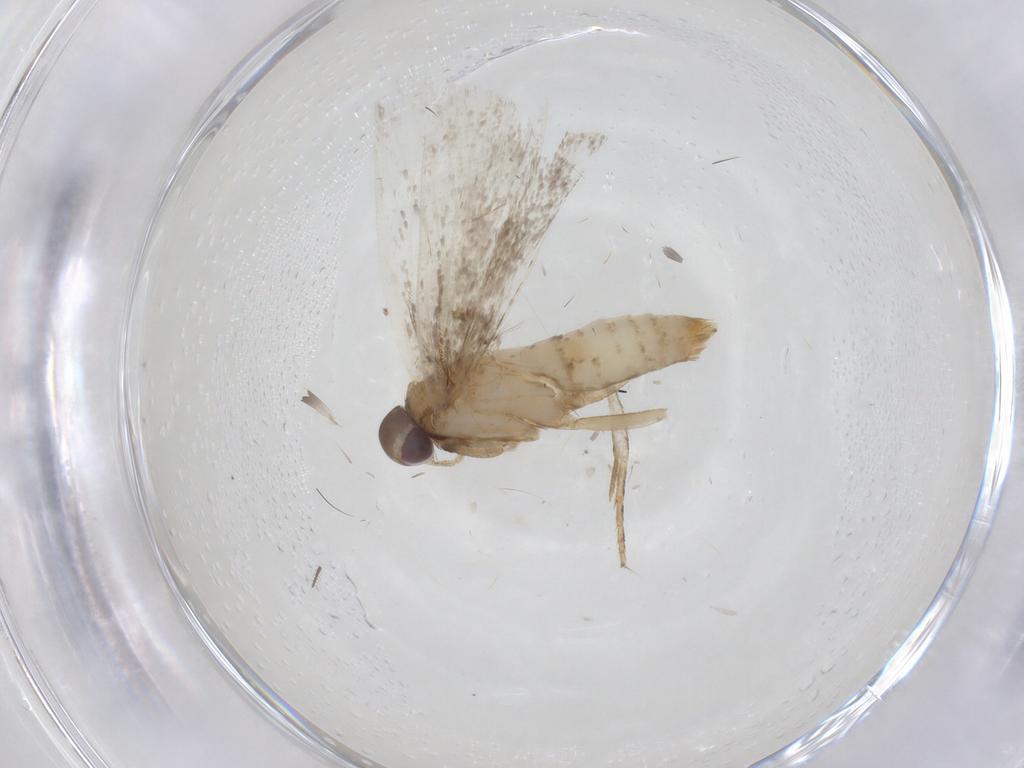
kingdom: Animalia
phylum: Arthropoda
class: Insecta
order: Lepidoptera
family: Gelechiidae
